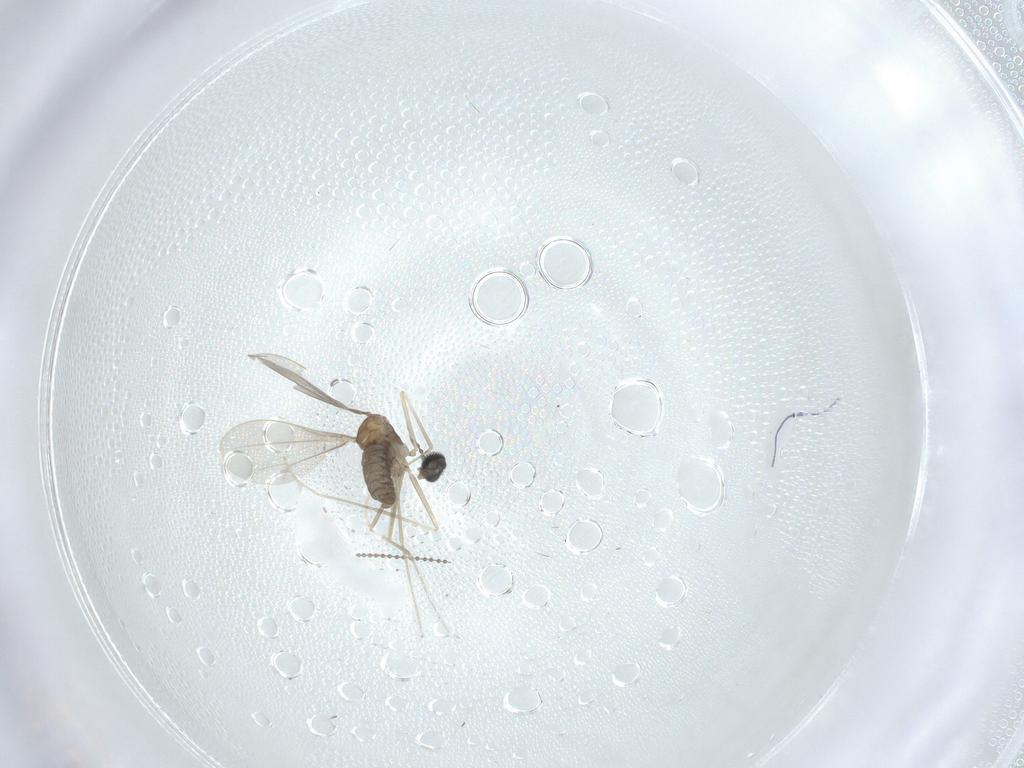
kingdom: Animalia
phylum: Arthropoda
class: Insecta
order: Diptera
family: Cecidomyiidae
